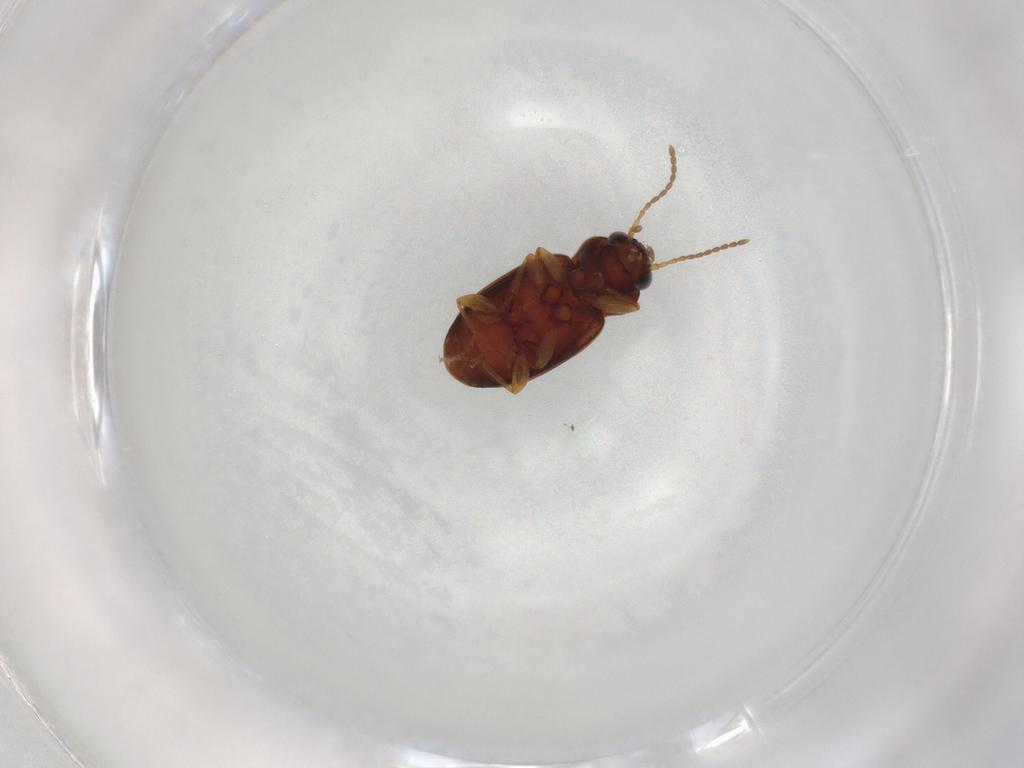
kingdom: Animalia
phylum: Arthropoda
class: Insecta
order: Coleoptera
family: Carabidae
